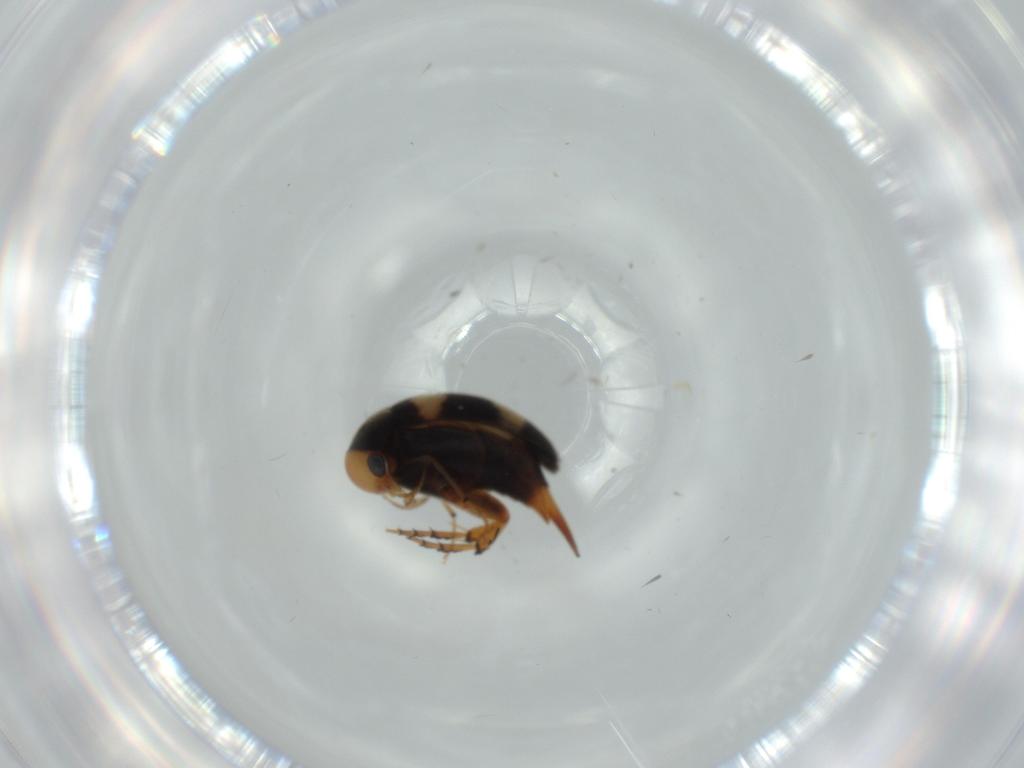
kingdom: Animalia
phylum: Arthropoda
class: Insecta
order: Coleoptera
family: Mordellidae
